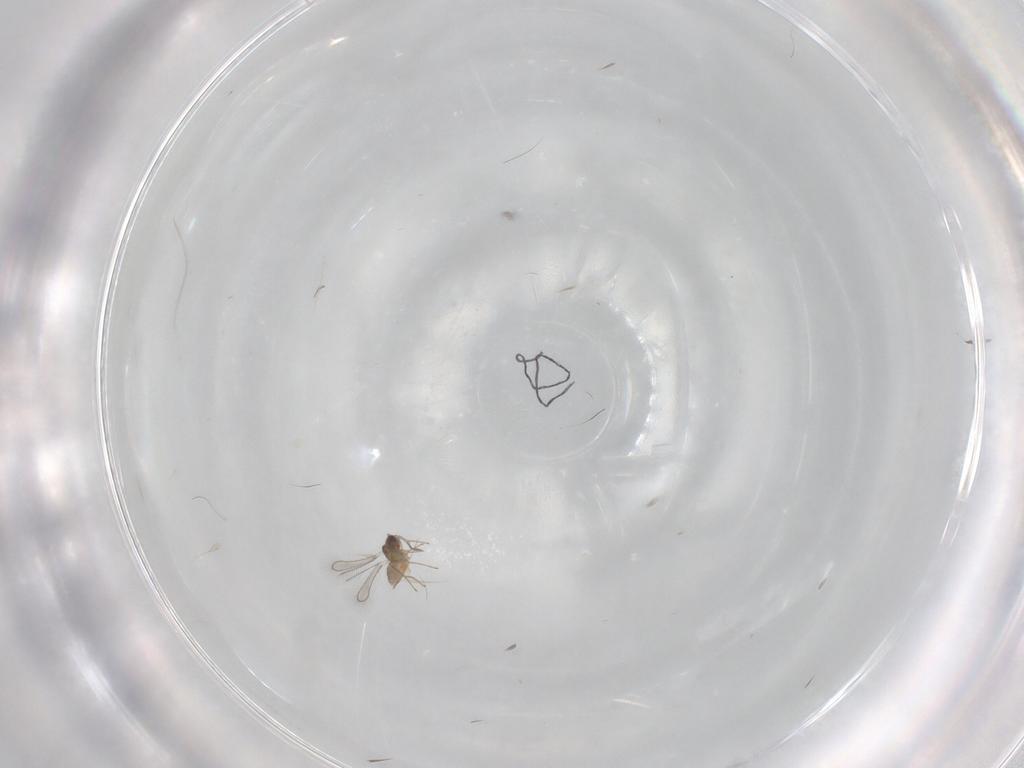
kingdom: Animalia
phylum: Arthropoda
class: Insecta
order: Hymenoptera
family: Mymaridae
